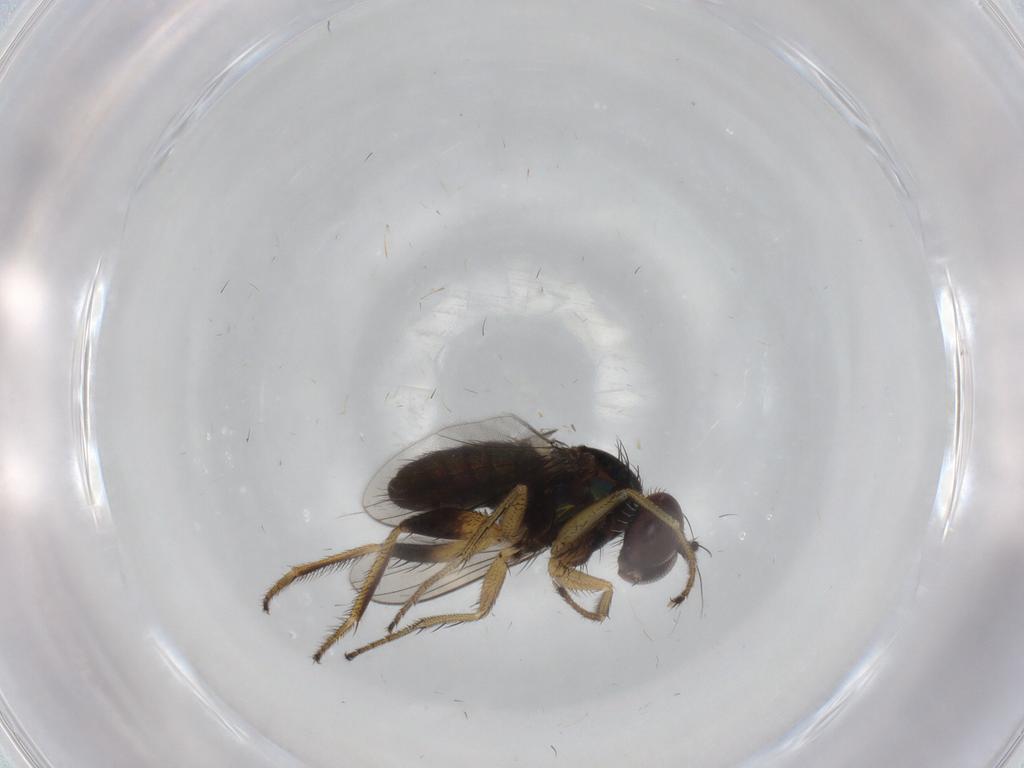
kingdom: Animalia
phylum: Arthropoda
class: Insecta
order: Diptera
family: Dolichopodidae
